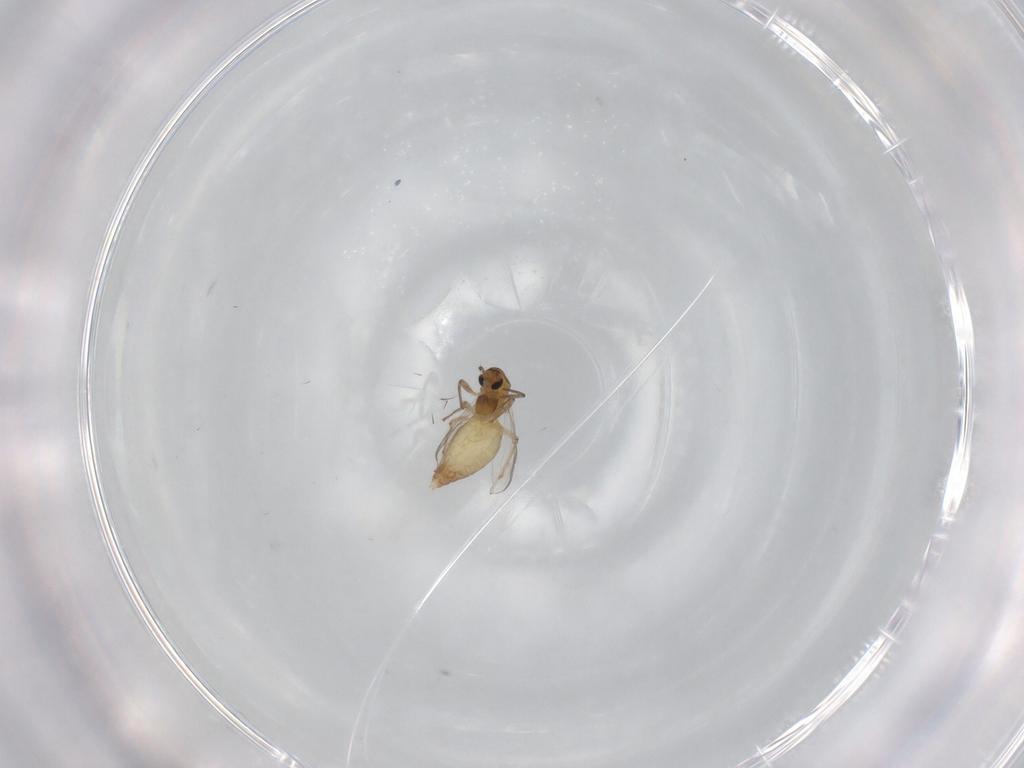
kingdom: Animalia
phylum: Arthropoda
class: Insecta
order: Diptera
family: Chironomidae
